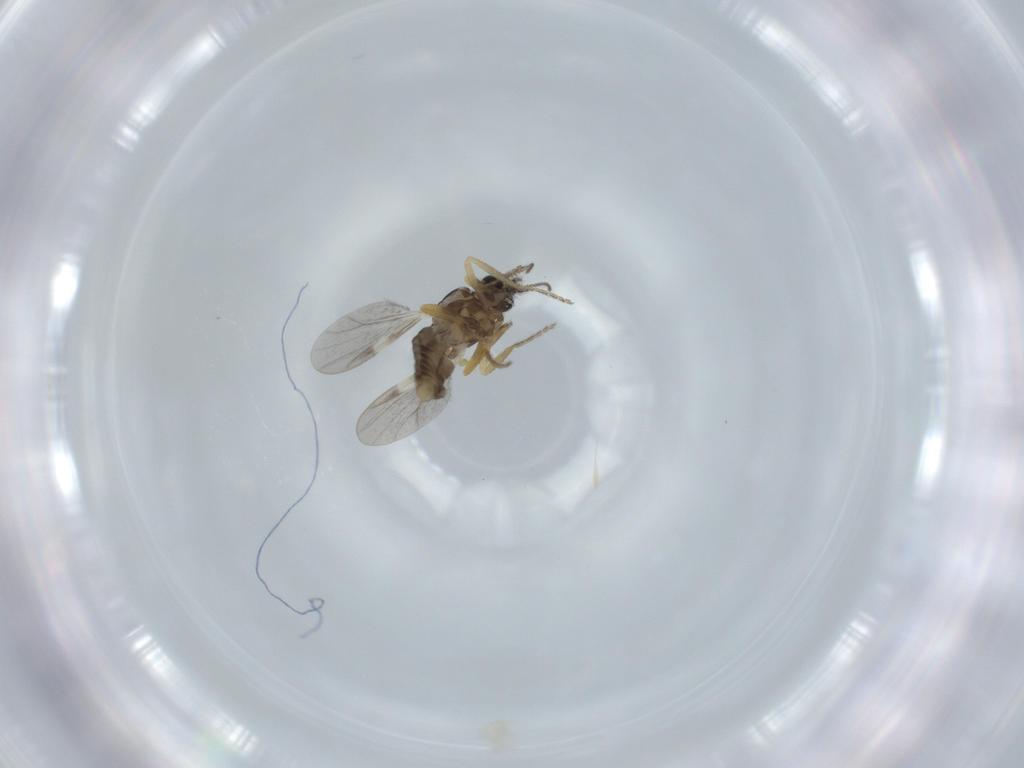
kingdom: Animalia
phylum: Arthropoda
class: Insecta
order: Diptera
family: Ceratopogonidae
